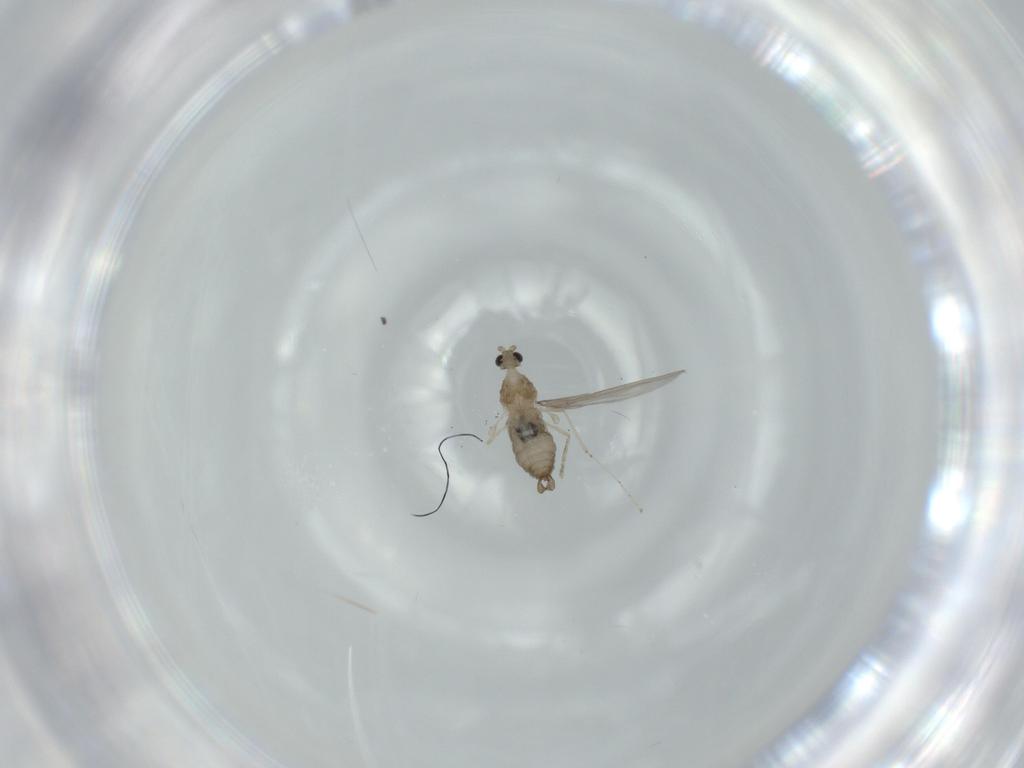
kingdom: Animalia
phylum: Arthropoda
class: Insecta
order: Diptera
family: Cecidomyiidae
